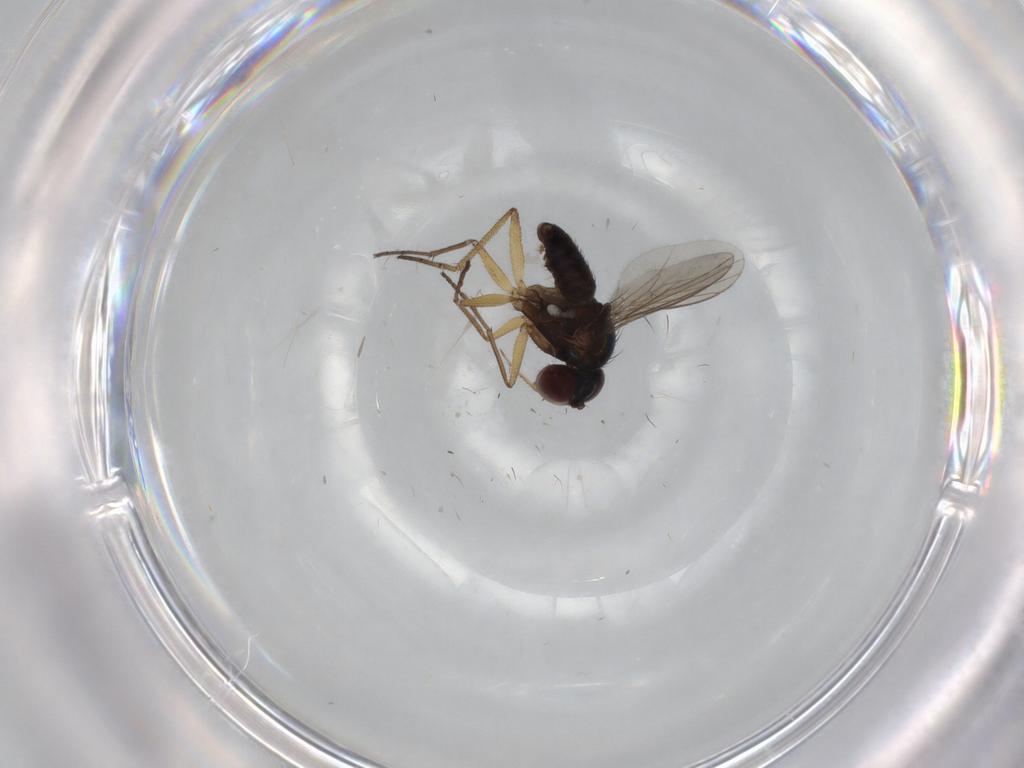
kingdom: Animalia
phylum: Arthropoda
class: Insecta
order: Diptera
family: Dolichopodidae
